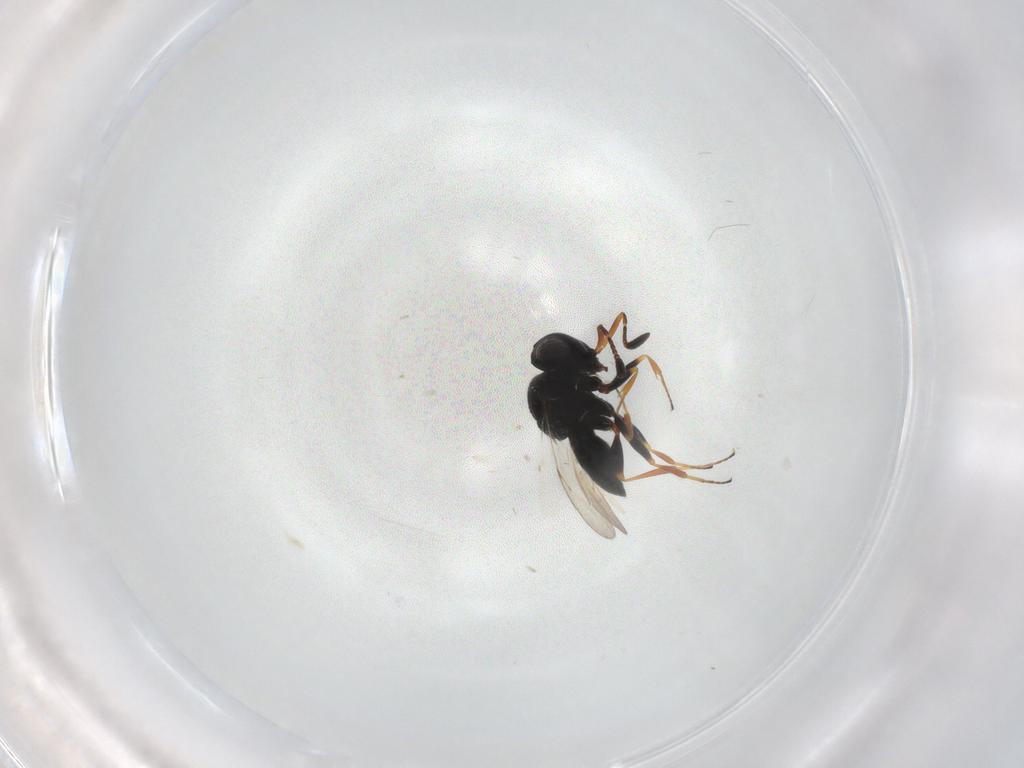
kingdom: Animalia
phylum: Arthropoda
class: Insecta
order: Coleoptera
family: Curculionidae
